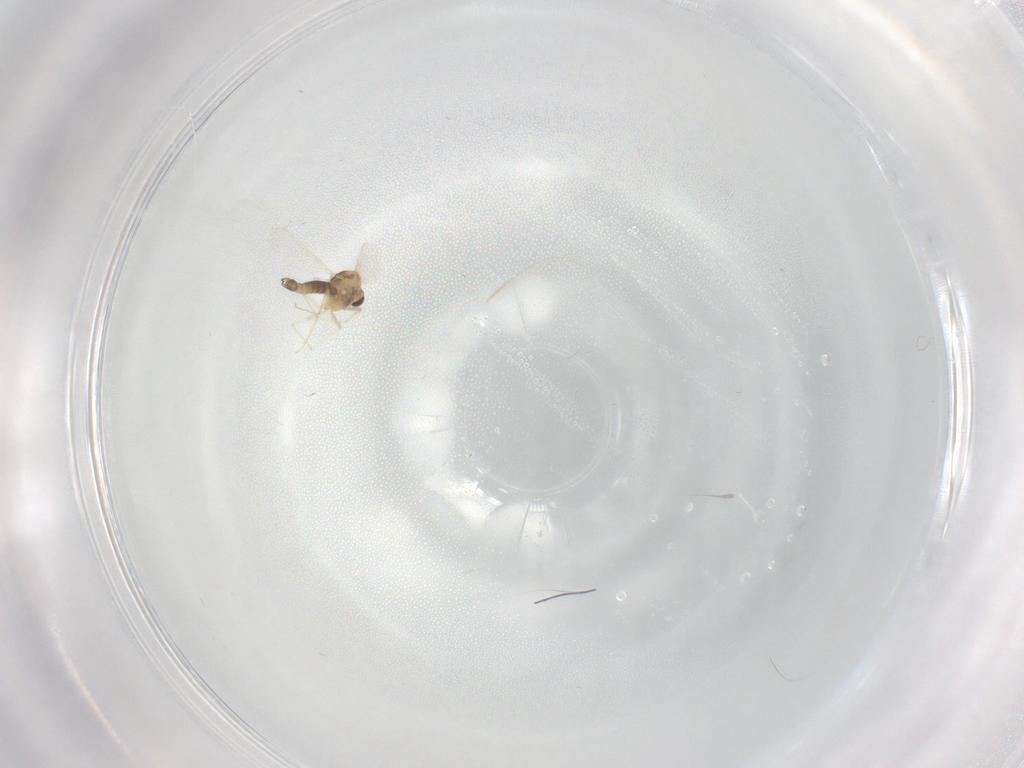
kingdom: Animalia
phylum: Arthropoda
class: Insecta
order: Diptera
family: Chironomidae
